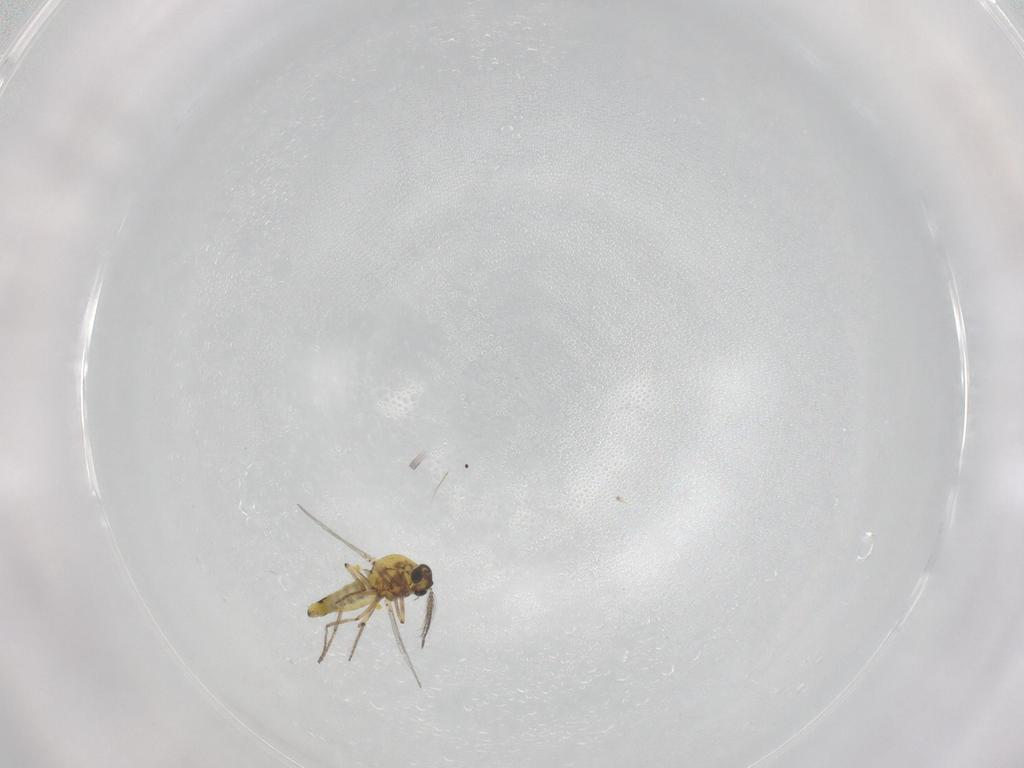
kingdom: Animalia
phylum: Arthropoda
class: Insecta
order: Diptera
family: Ceratopogonidae
